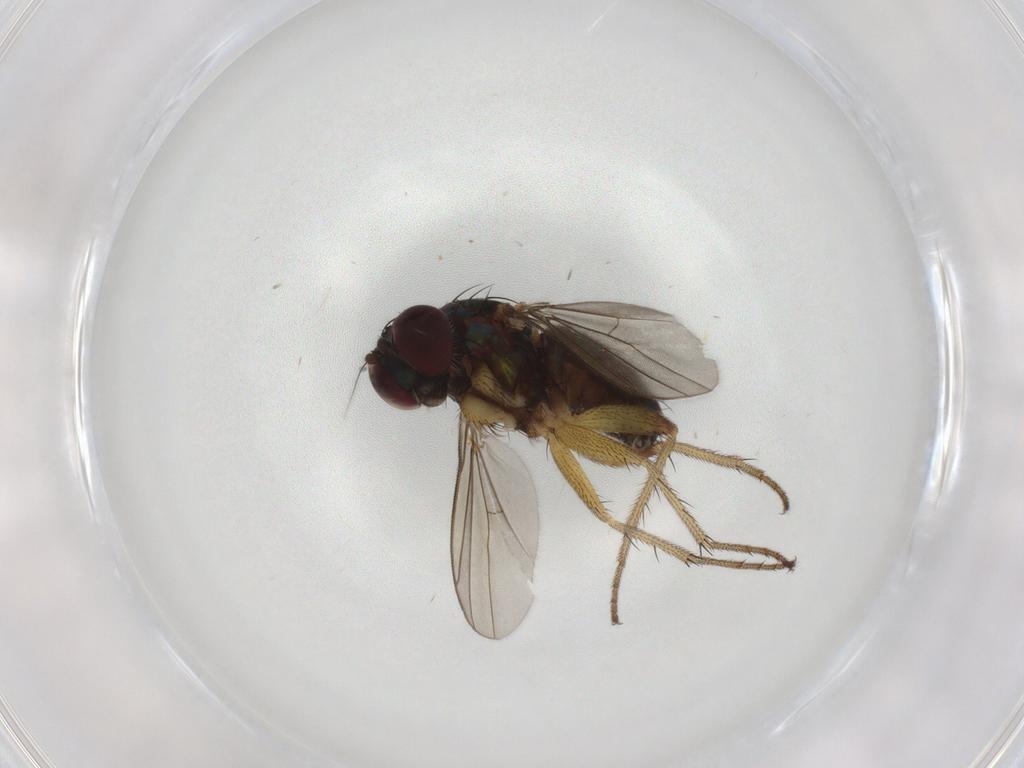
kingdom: Animalia
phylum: Arthropoda
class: Insecta
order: Diptera
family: Dolichopodidae
